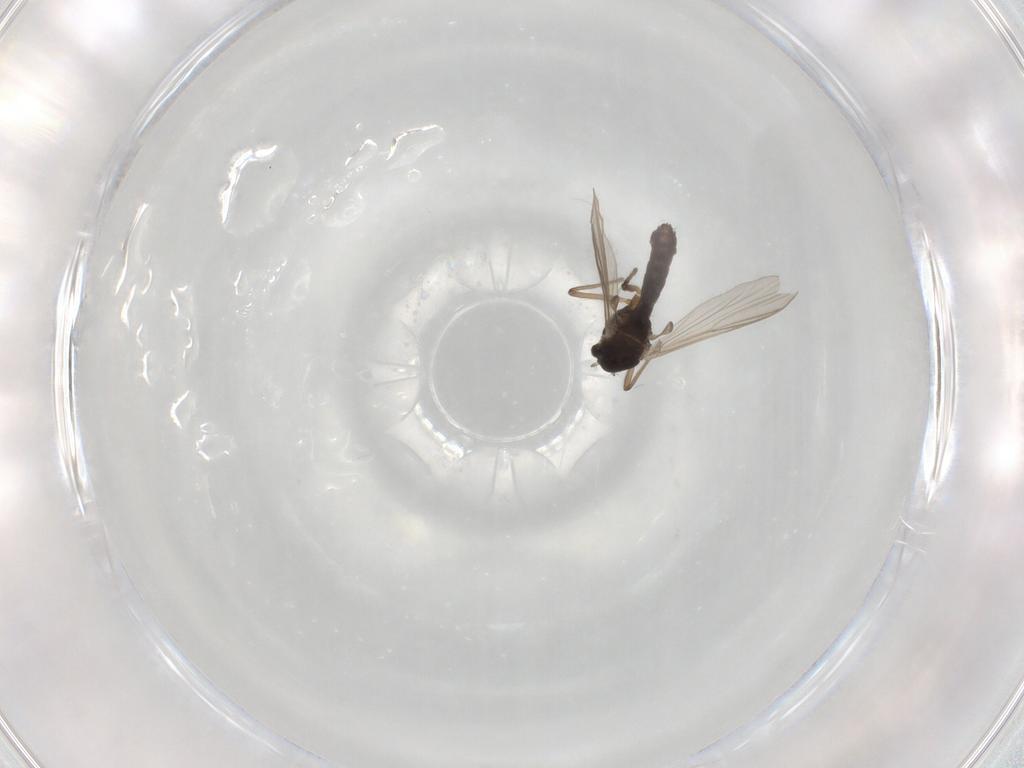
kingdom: Animalia
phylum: Arthropoda
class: Insecta
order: Diptera
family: Chironomidae
